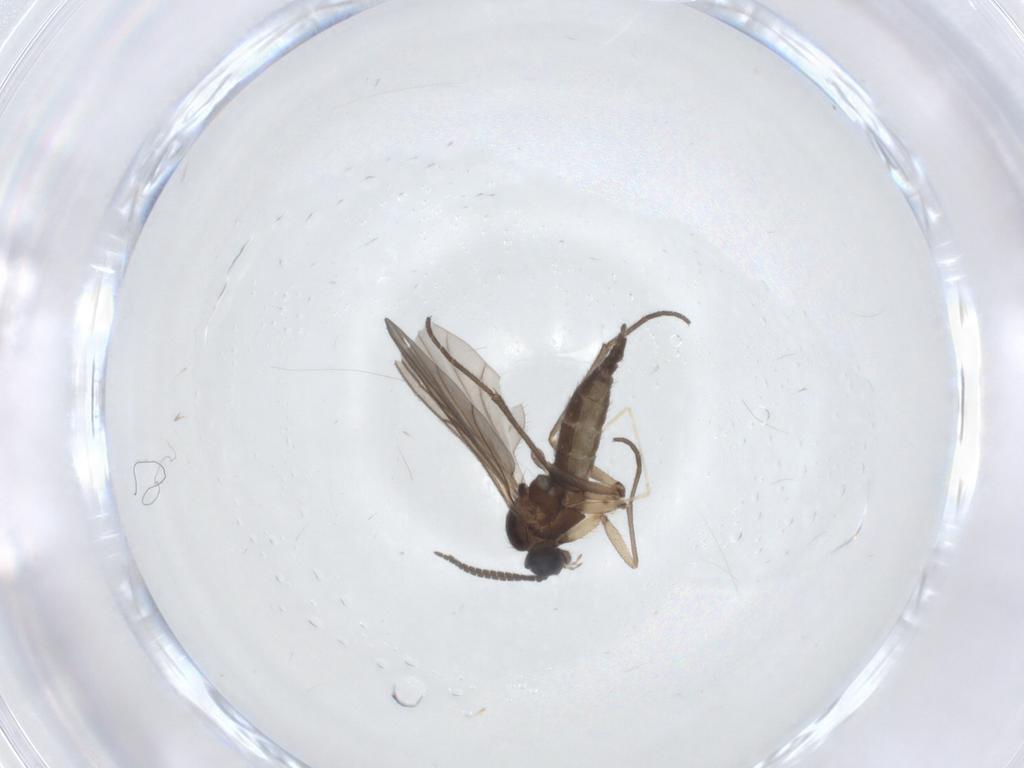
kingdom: Animalia
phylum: Arthropoda
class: Insecta
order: Diptera
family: Sciaridae
